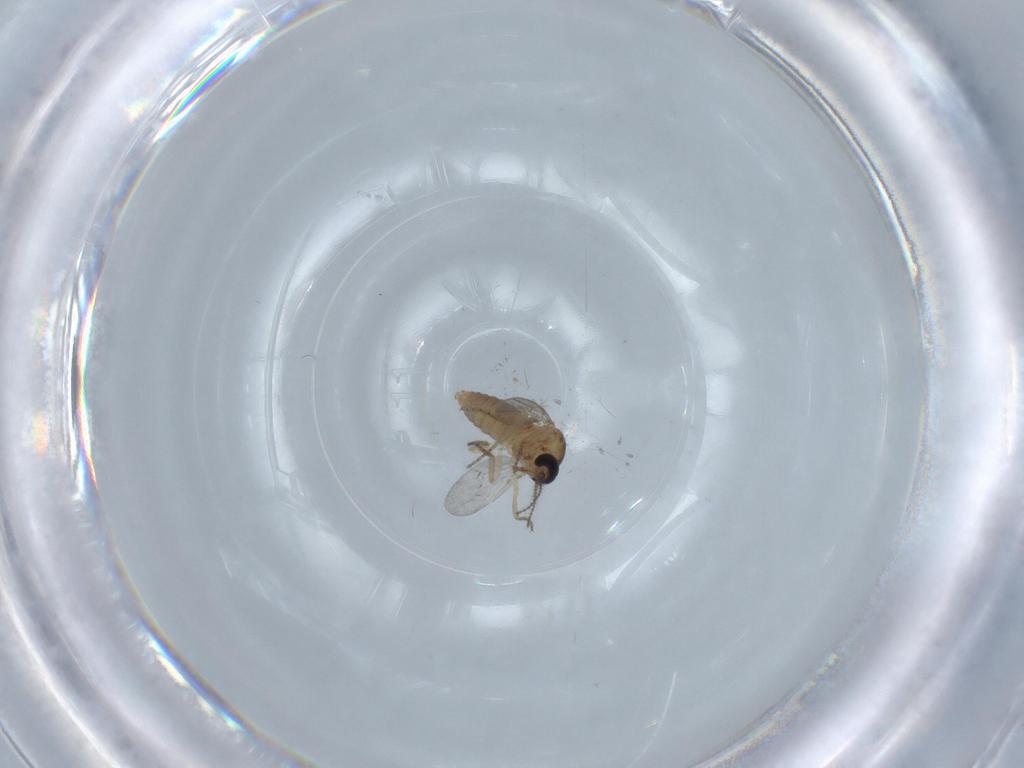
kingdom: Animalia
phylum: Arthropoda
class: Insecta
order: Diptera
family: Ceratopogonidae
